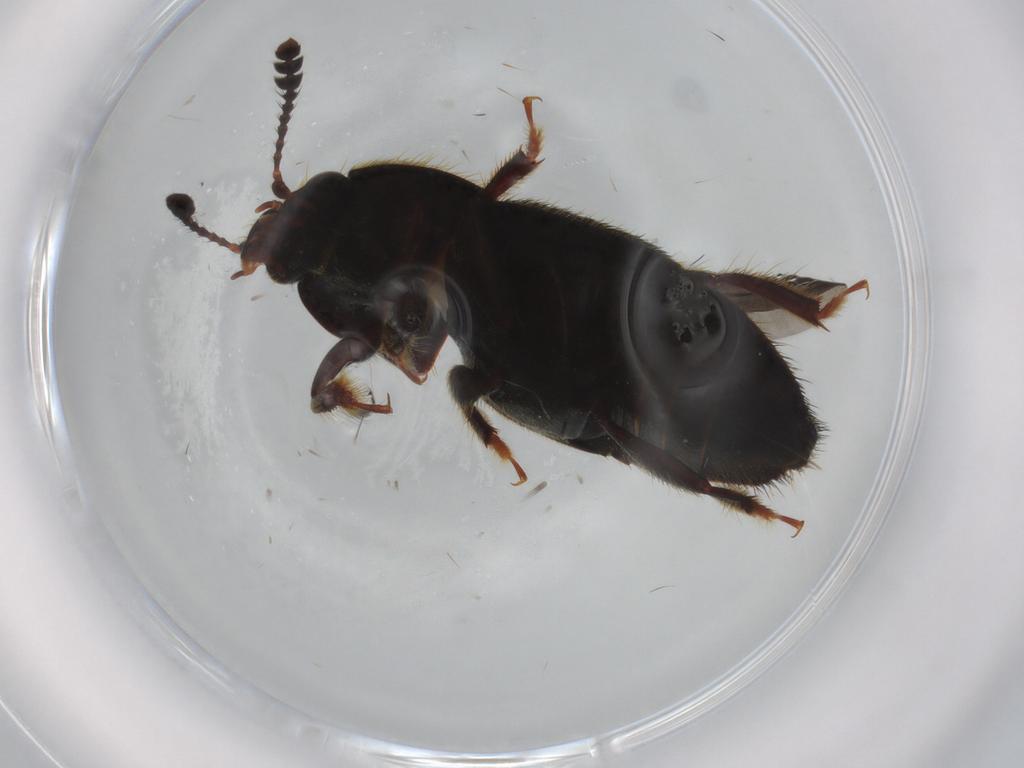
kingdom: Animalia
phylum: Arthropoda
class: Insecta
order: Coleoptera
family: Nitidulidae
